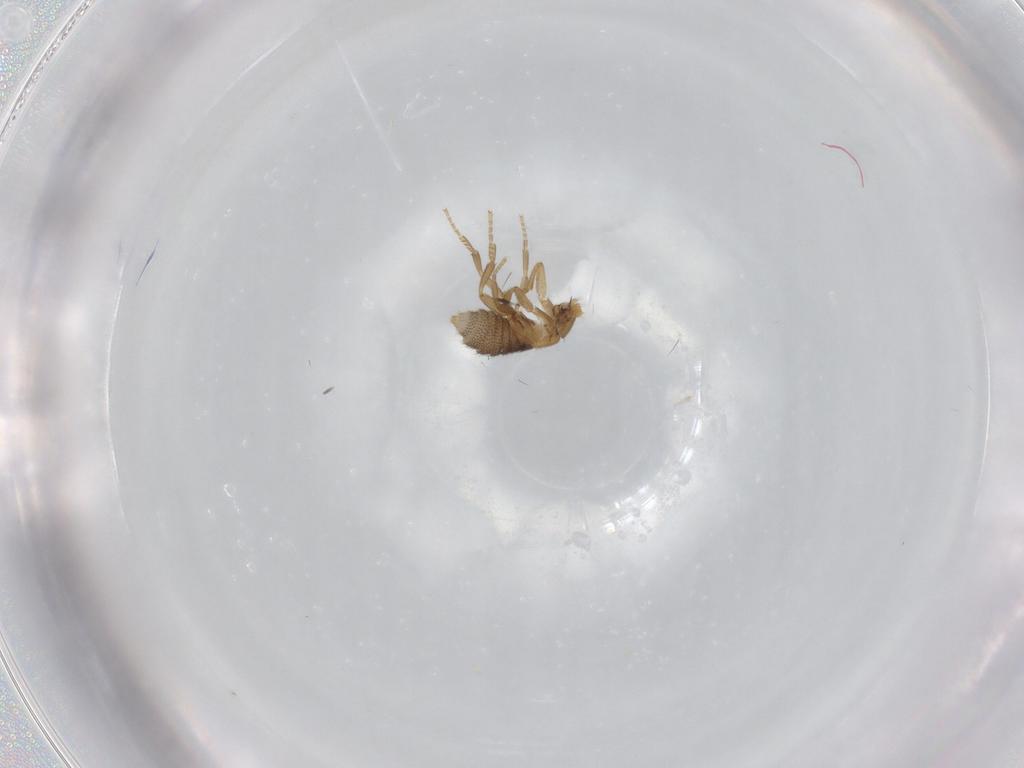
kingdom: Animalia
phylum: Arthropoda
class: Insecta
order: Diptera
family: Phoridae
